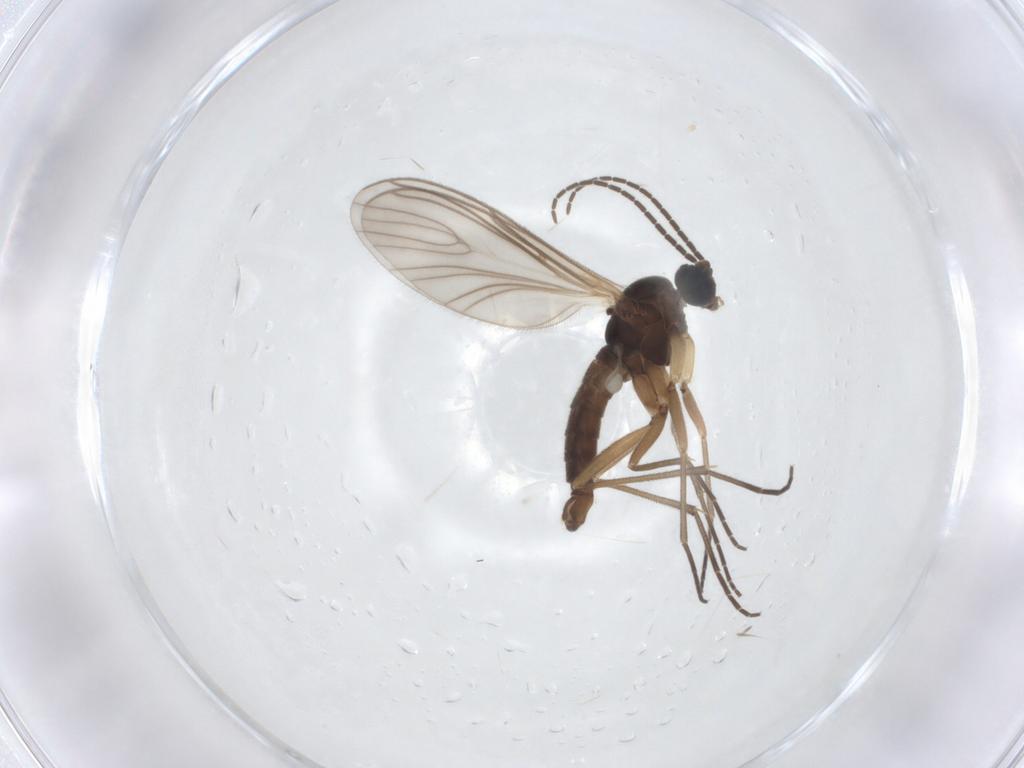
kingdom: Animalia
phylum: Arthropoda
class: Insecta
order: Diptera
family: Sciaridae
